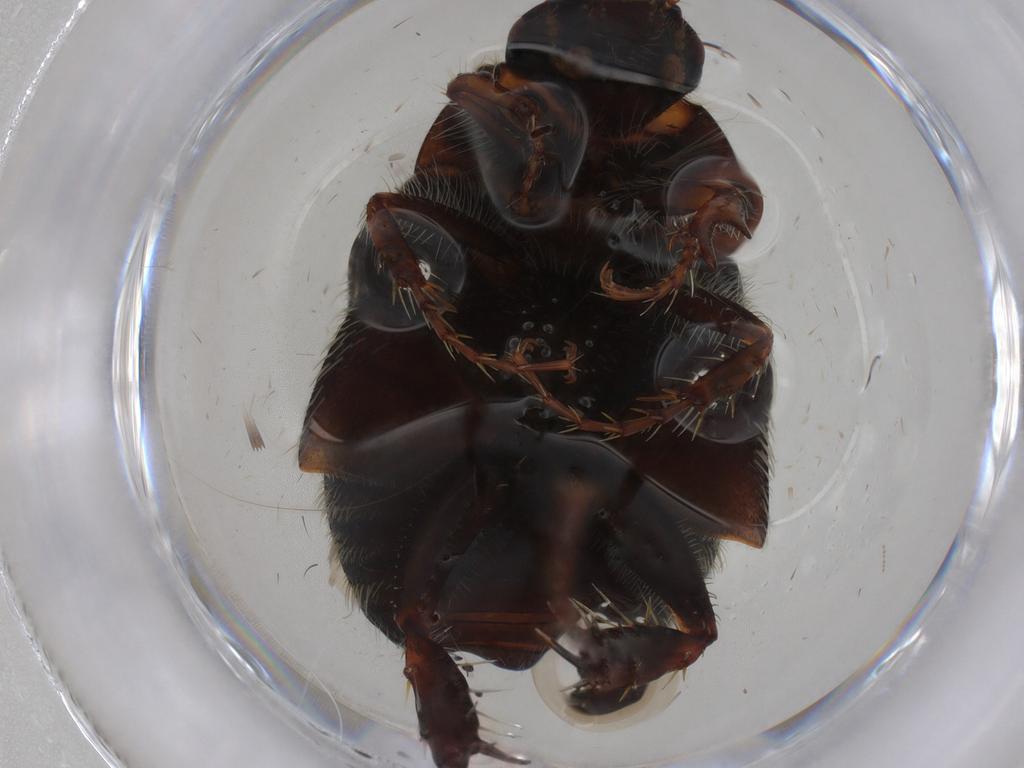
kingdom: Animalia
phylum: Arthropoda
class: Insecta
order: Coleoptera
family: Scarabaeidae
